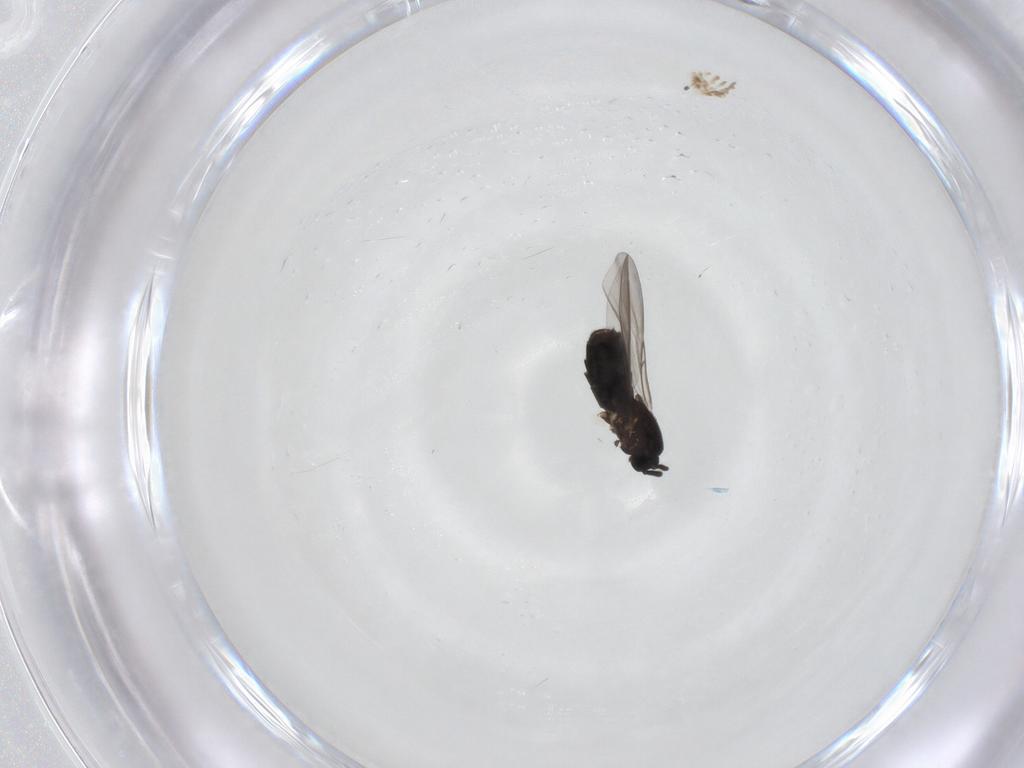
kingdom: Animalia
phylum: Arthropoda
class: Insecta
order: Diptera
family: Scatopsidae
